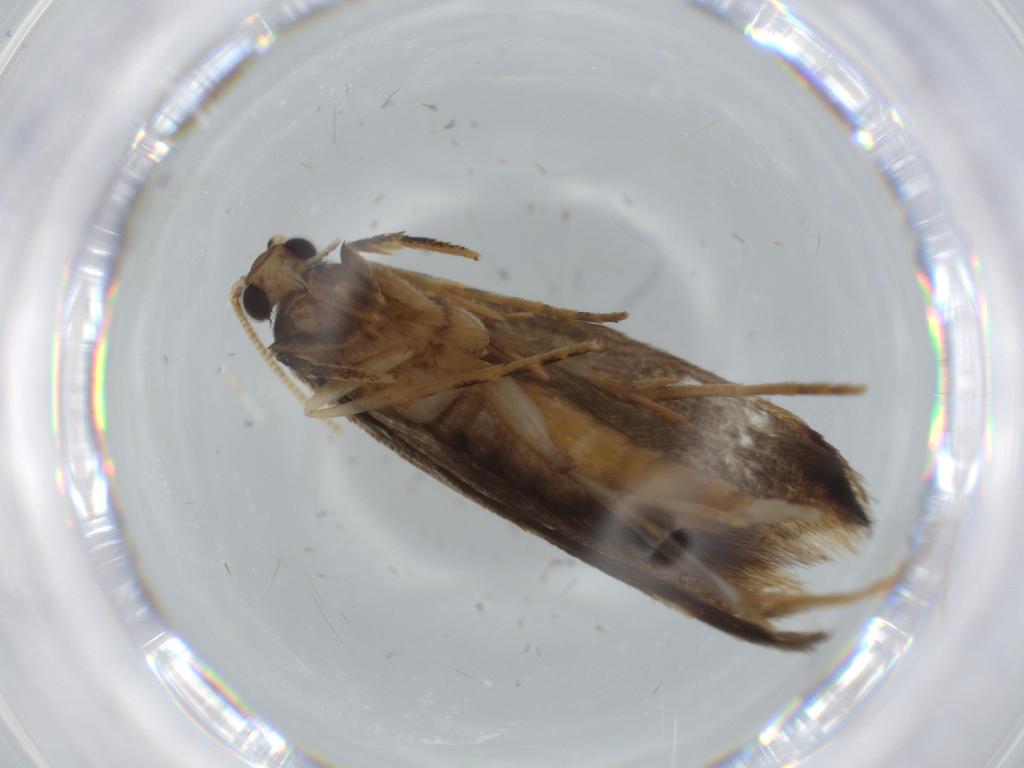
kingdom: Animalia
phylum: Arthropoda
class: Insecta
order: Lepidoptera
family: Tineidae
